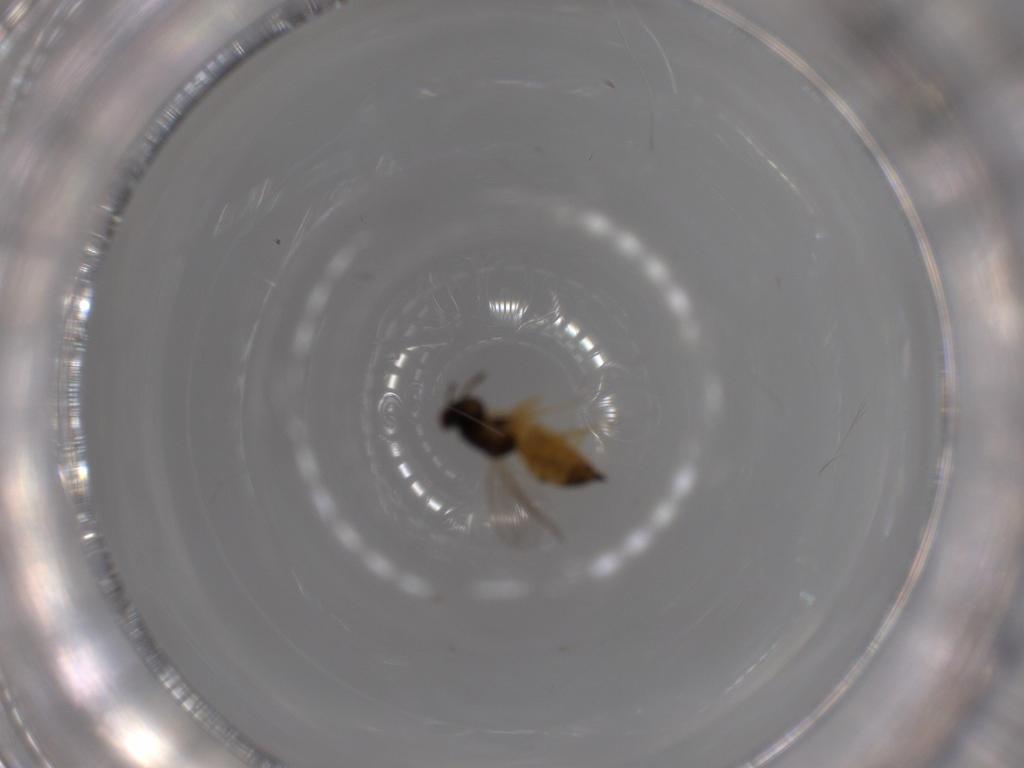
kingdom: Animalia
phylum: Arthropoda
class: Insecta
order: Hymenoptera
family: Eulophidae
